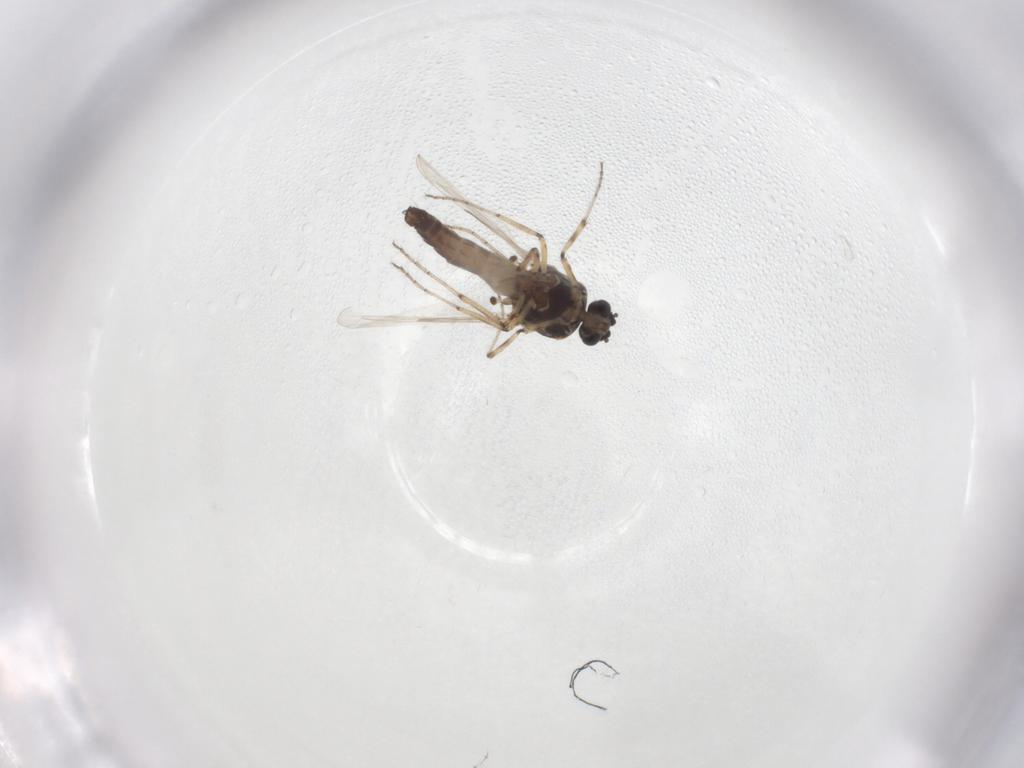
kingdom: Animalia
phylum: Arthropoda
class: Insecta
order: Diptera
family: Ceratopogonidae
